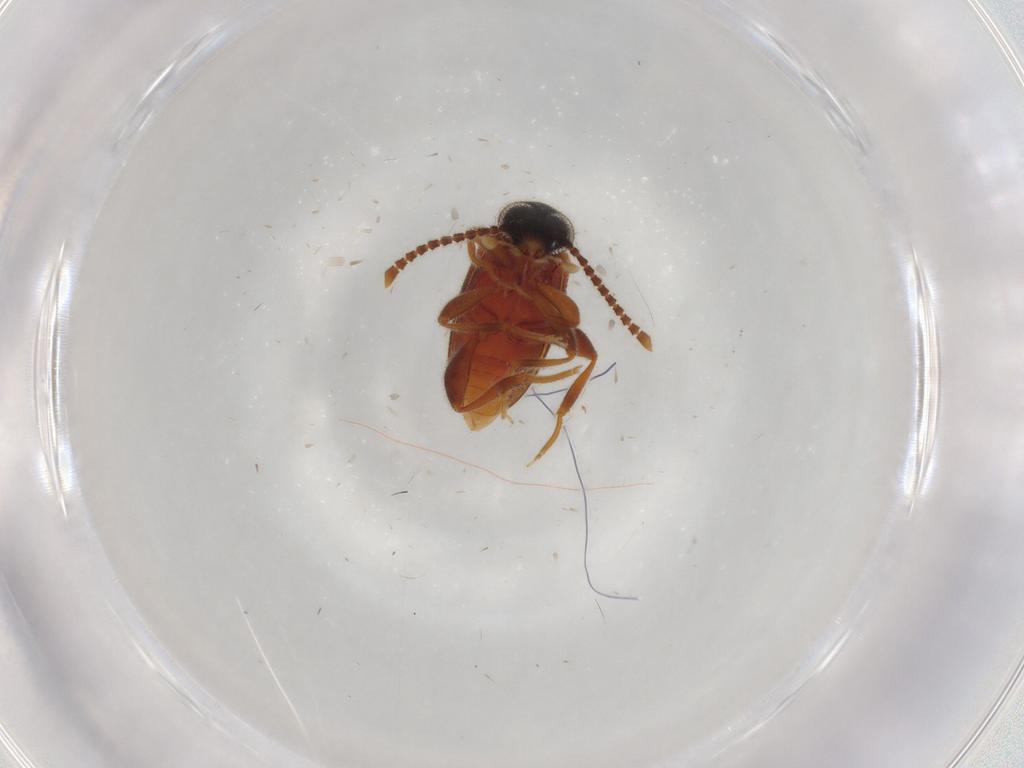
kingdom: Animalia
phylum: Arthropoda
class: Insecta
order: Coleoptera
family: Aderidae
